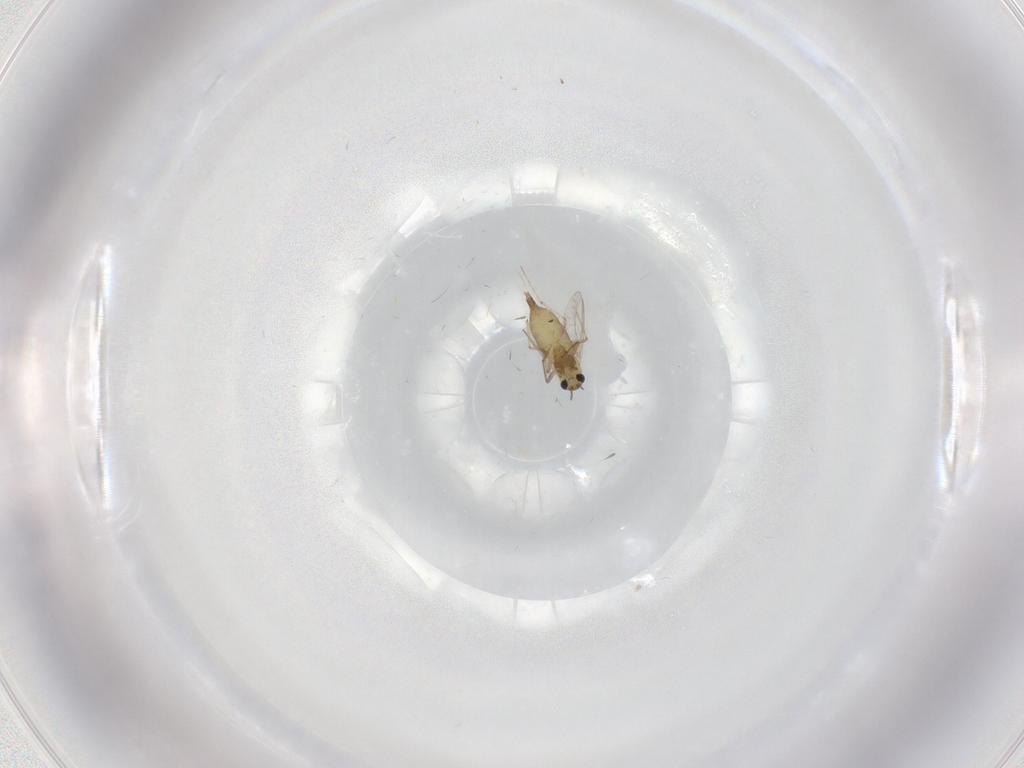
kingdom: Animalia
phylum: Arthropoda
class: Insecta
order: Diptera
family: Chironomidae
